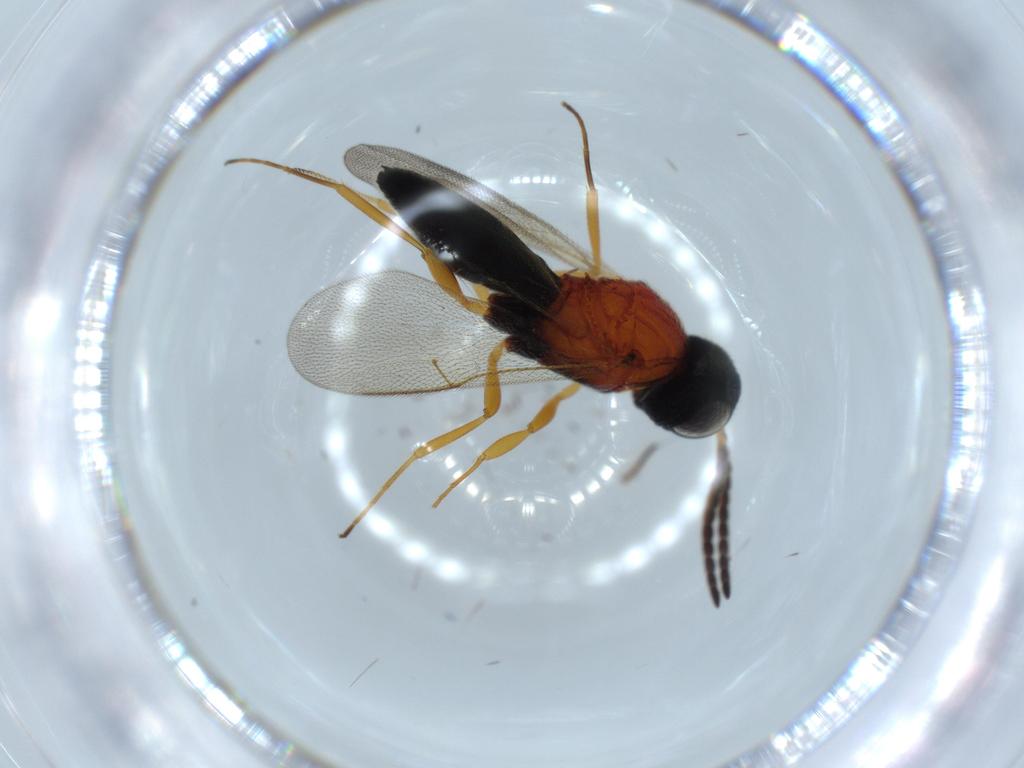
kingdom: Animalia
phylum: Arthropoda
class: Insecta
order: Hymenoptera
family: Scelionidae
